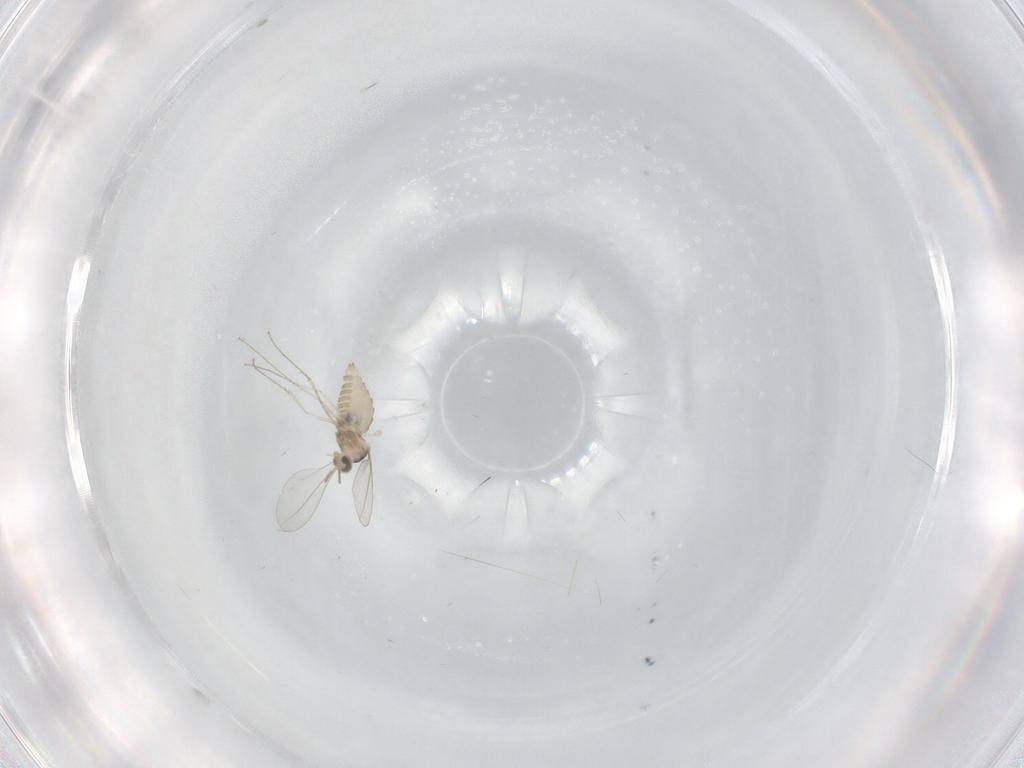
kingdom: Animalia
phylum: Arthropoda
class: Insecta
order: Diptera
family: Cecidomyiidae
